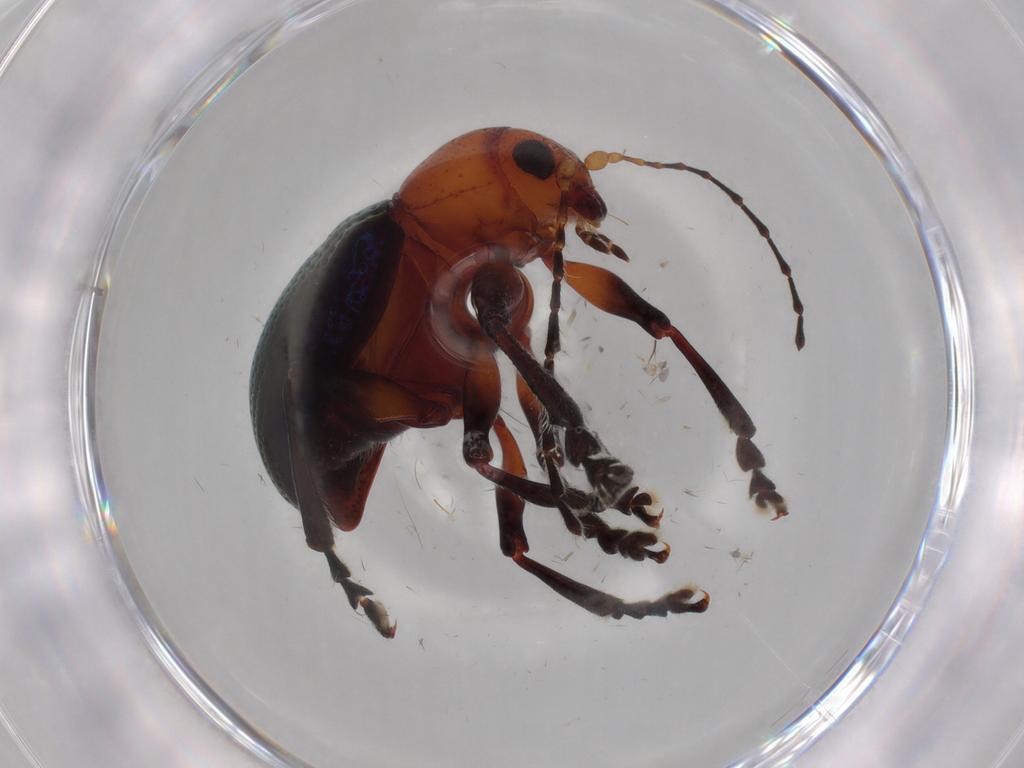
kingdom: Animalia
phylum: Arthropoda
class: Insecta
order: Coleoptera
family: Chrysomelidae
